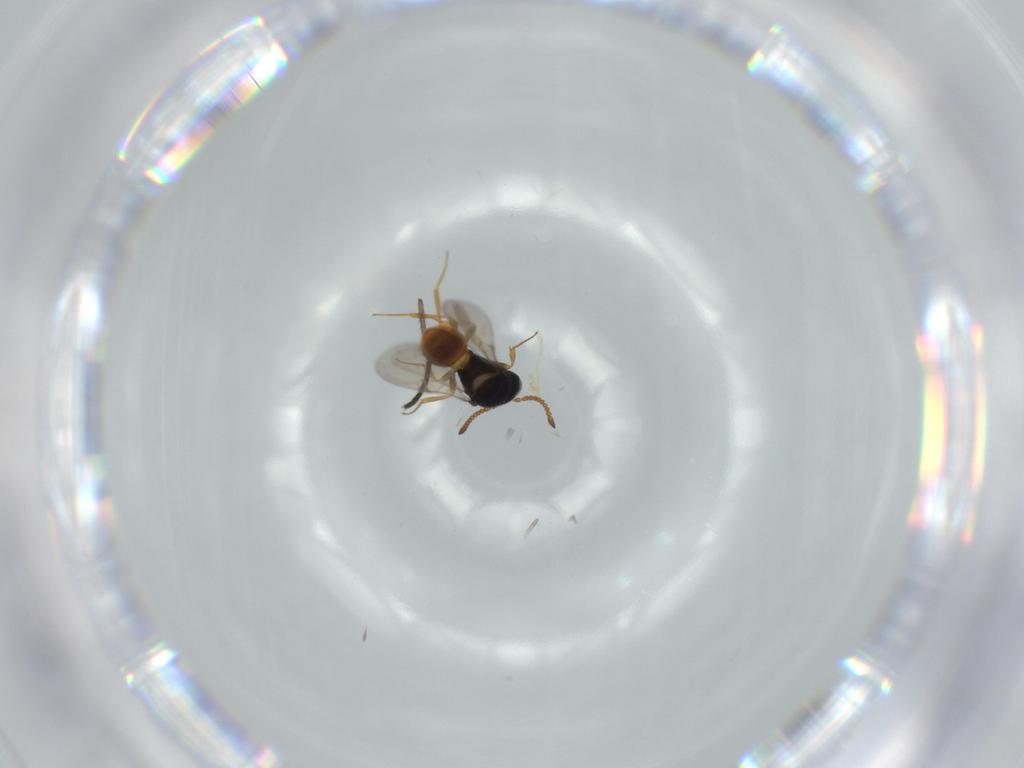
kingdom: Animalia
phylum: Arthropoda
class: Insecta
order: Hymenoptera
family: Scelionidae
